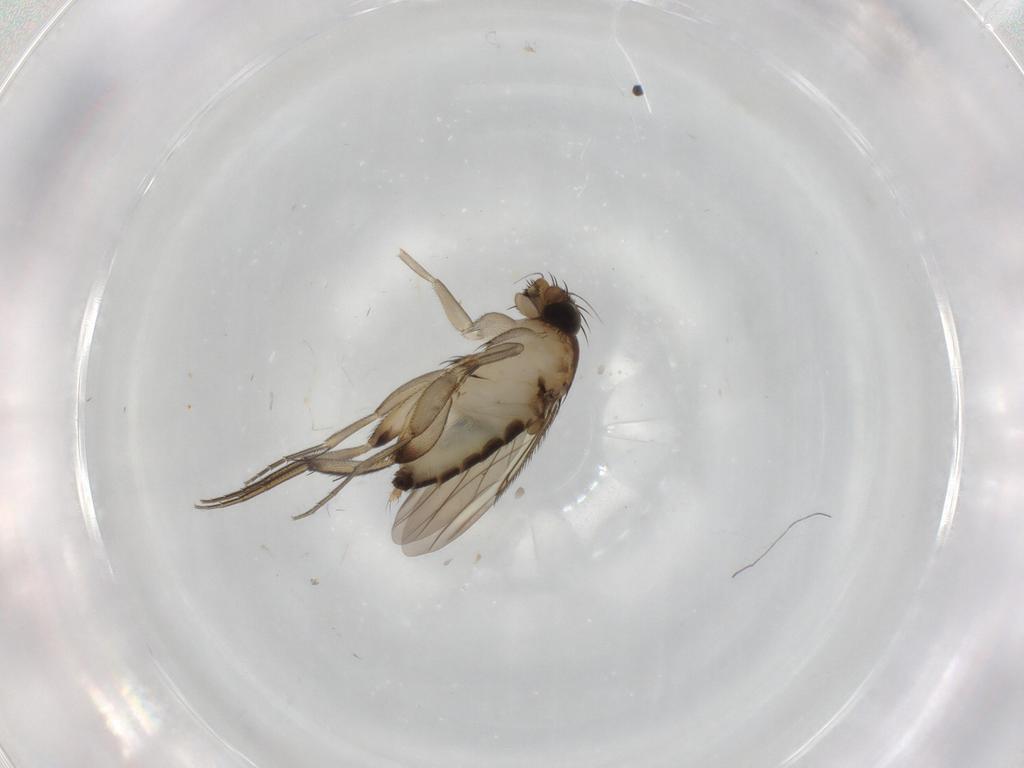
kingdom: Animalia
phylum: Arthropoda
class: Insecta
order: Diptera
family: Phoridae
